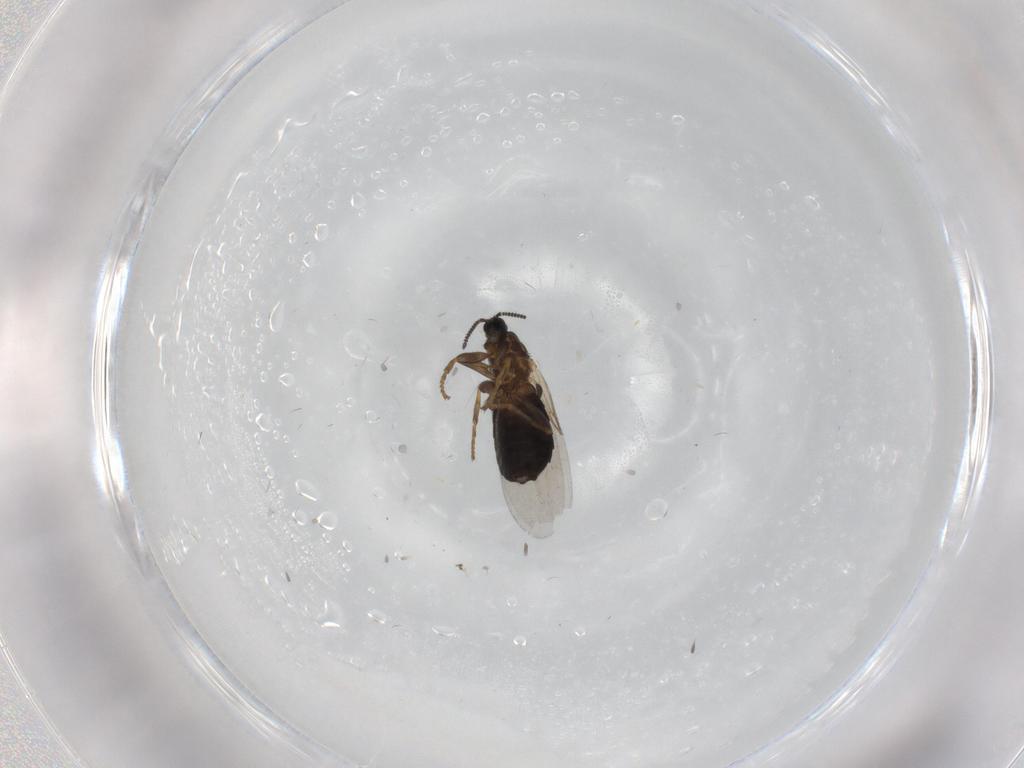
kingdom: Animalia
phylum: Arthropoda
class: Insecta
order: Diptera
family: Scatopsidae
